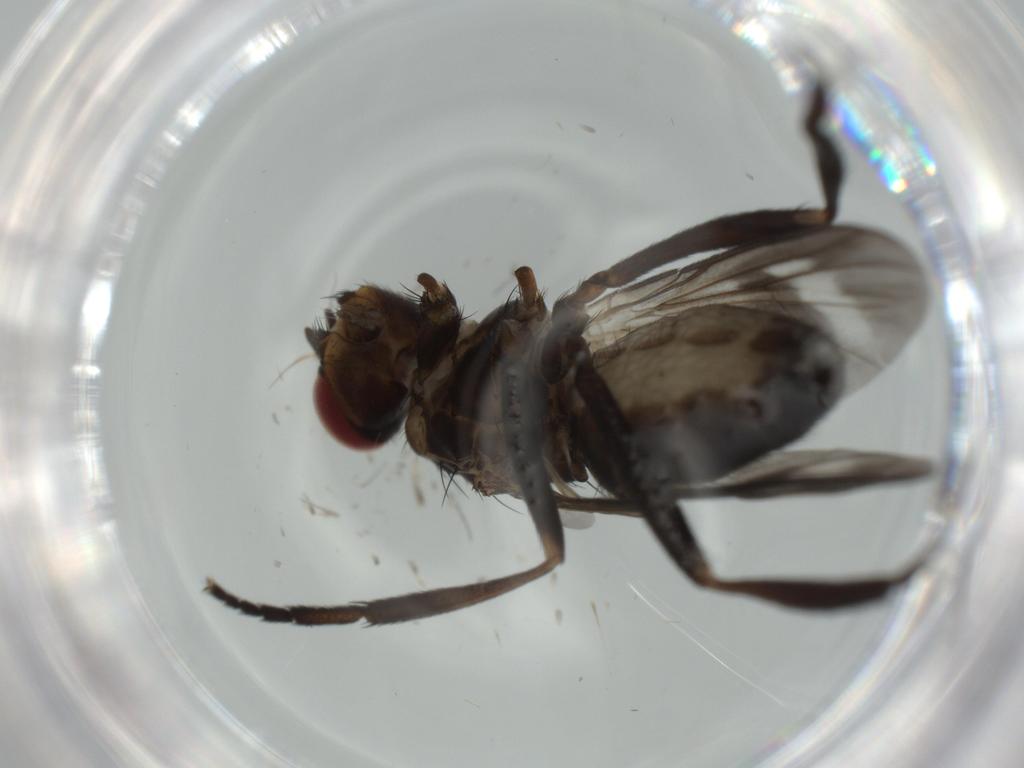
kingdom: Animalia
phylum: Arthropoda
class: Insecta
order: Diptera
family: Calliphoridae
